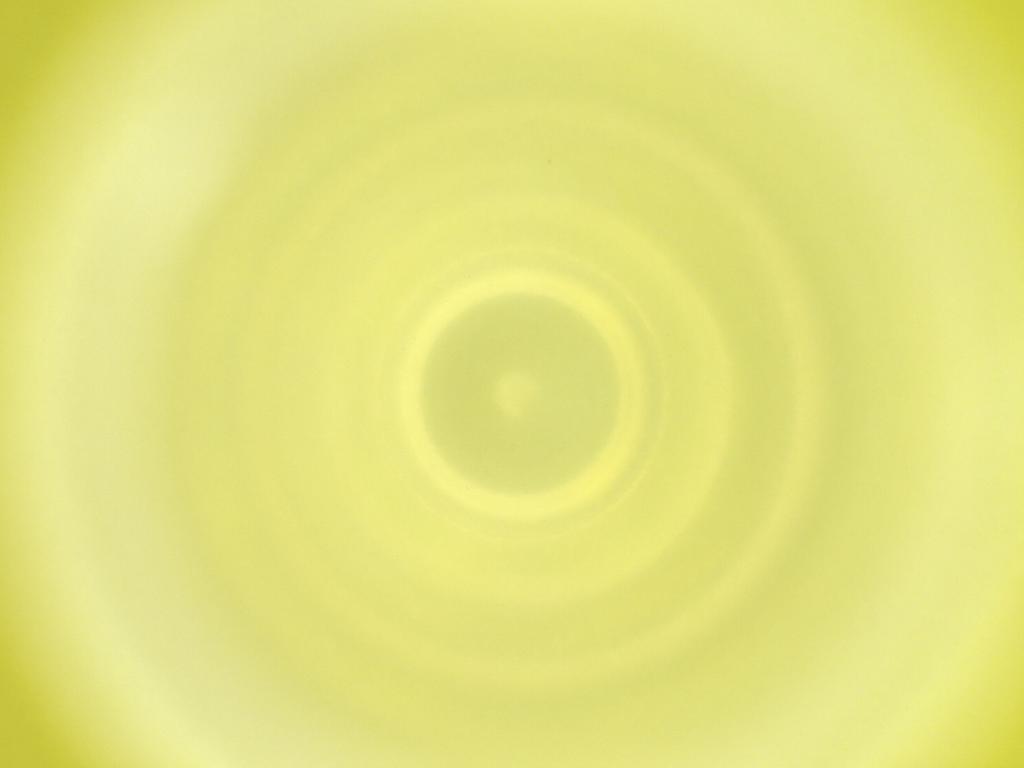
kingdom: Animalia
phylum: Arthropoda
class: Insecta
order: Diptera
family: Cecidomyiidae
